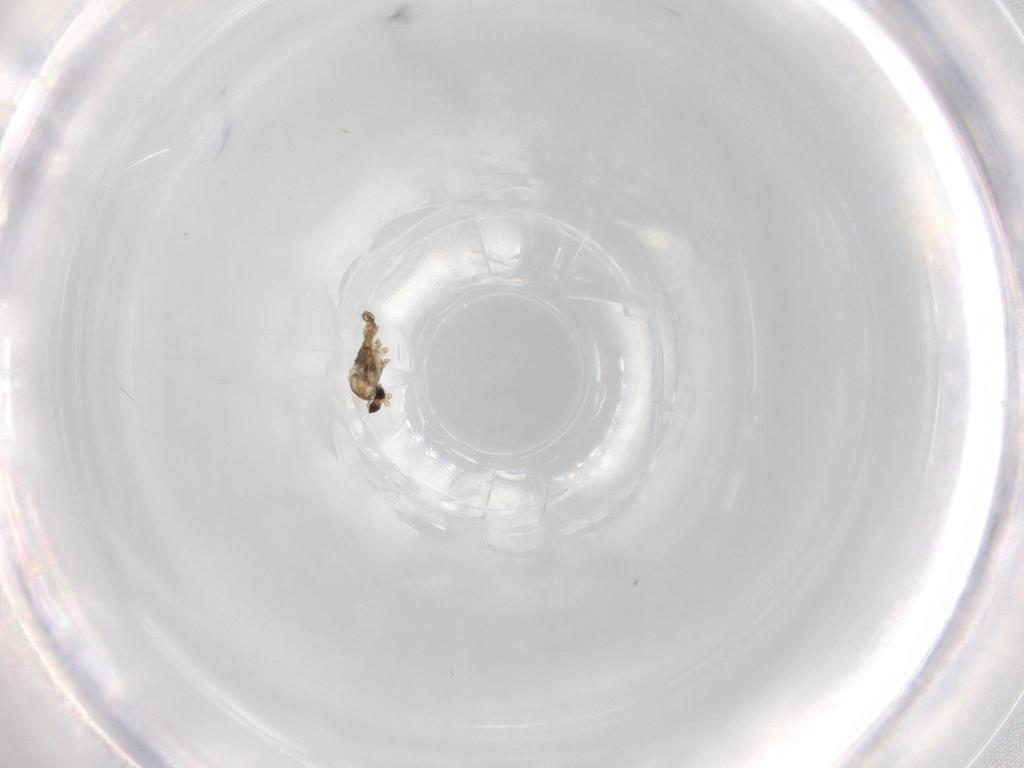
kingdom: Animalia
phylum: Arthropoda
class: Insecta
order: Diptera
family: Cecidomyiidae
